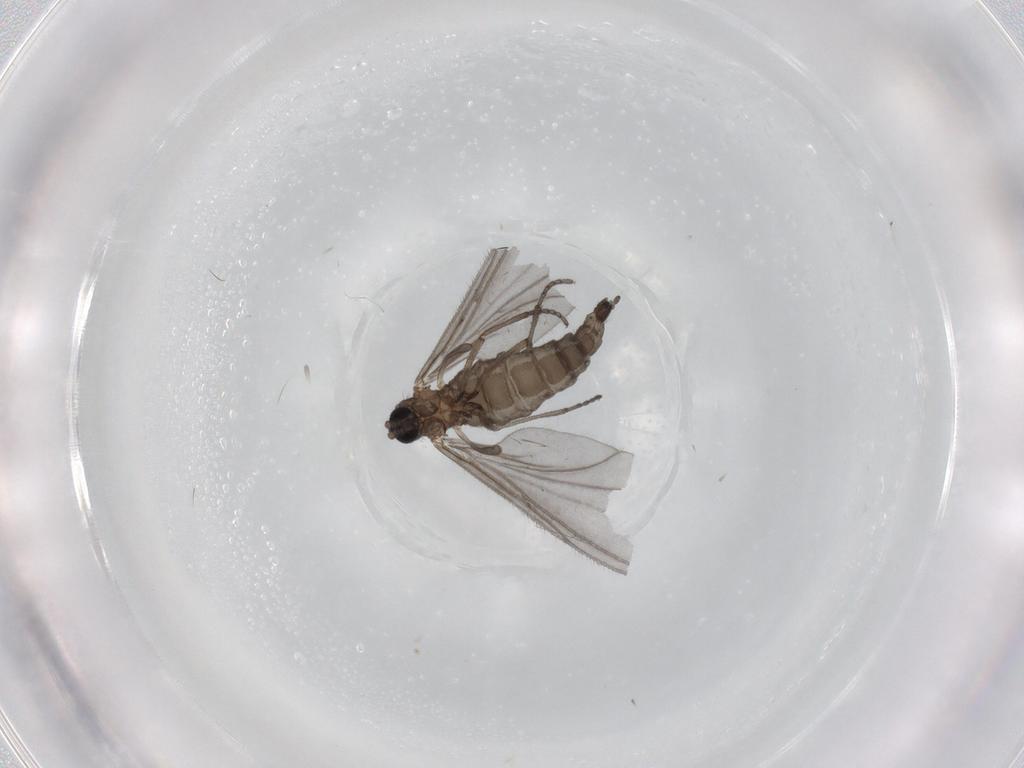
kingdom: Animalia
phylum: Arthropoda
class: Insecta
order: Diptera
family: Sciaridae
